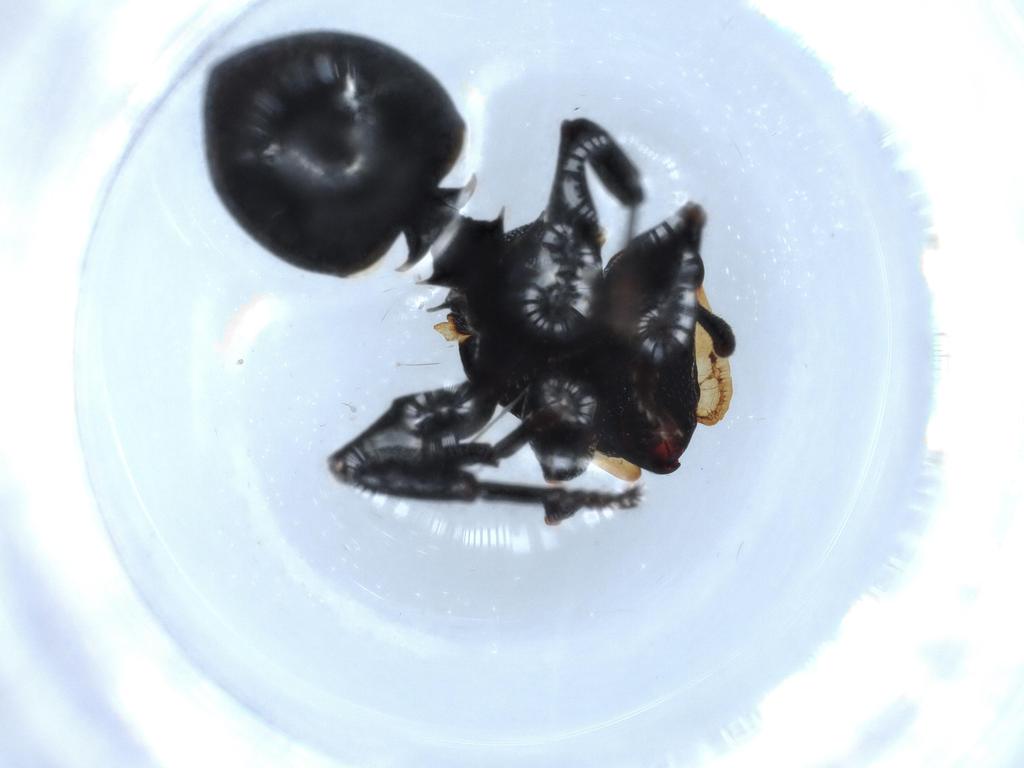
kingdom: Animalia
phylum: Arthropoda
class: Insecta
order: Hymenoptera
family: Formicidae
